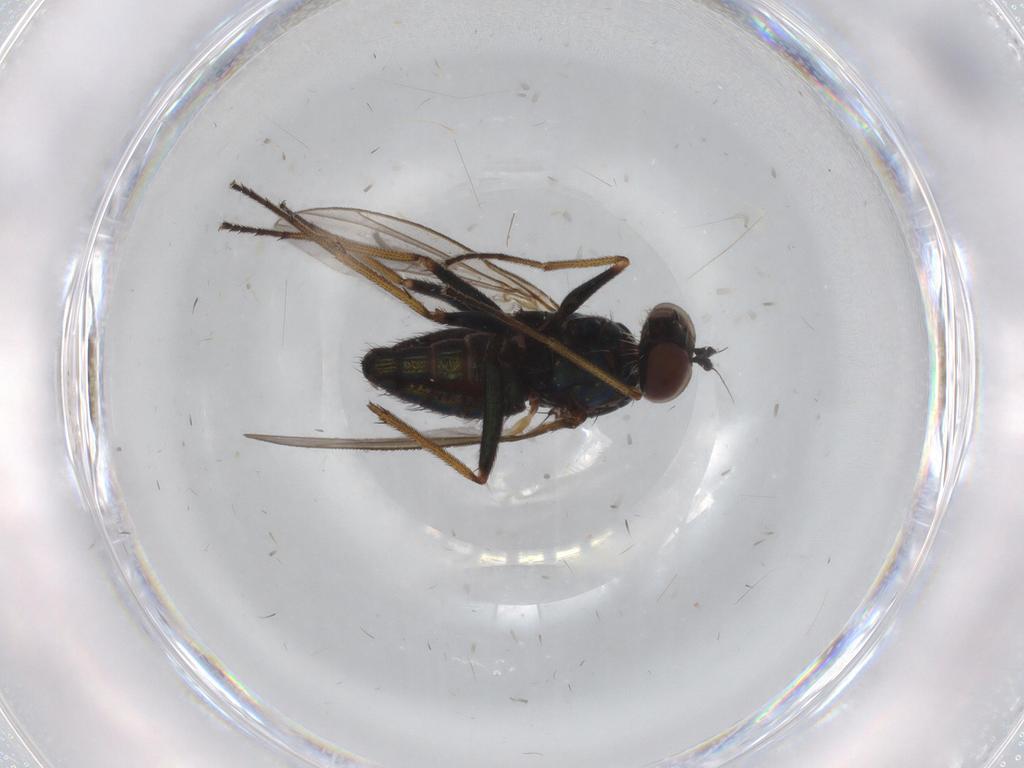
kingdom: Animalia
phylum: Arthropoda
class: Insecta
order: Diptera
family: Dolichopodidae
